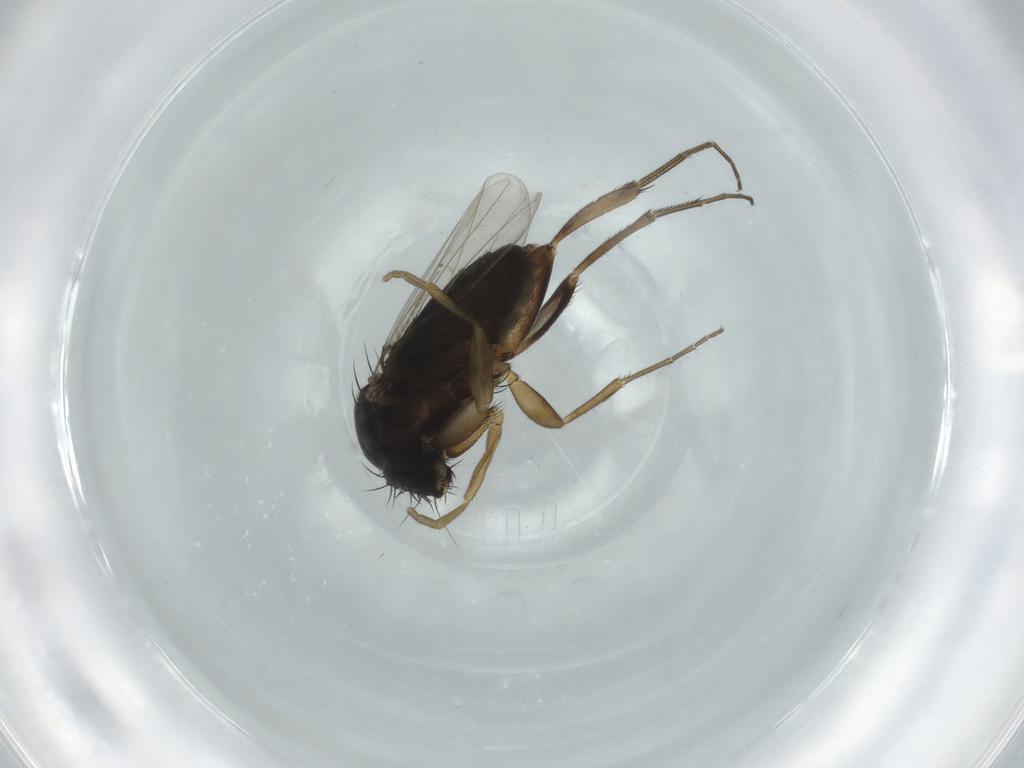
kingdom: Animalia
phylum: Arthropoda
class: Insecta
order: Diptera
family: Phoridae
